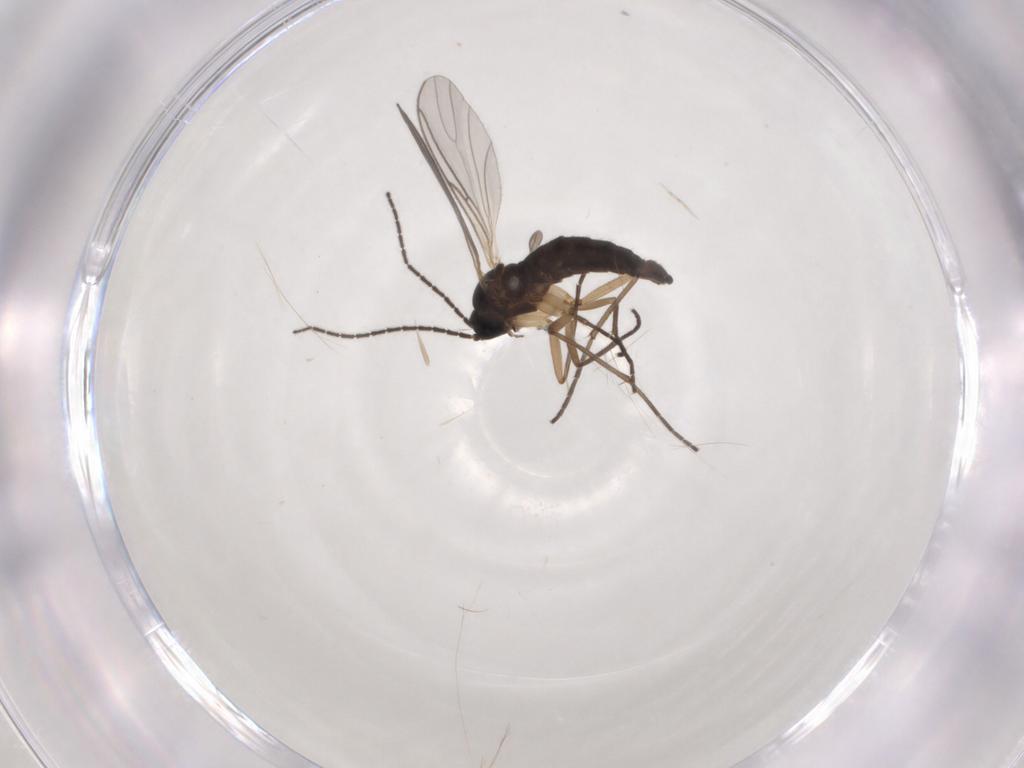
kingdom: Animalia
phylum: Arthropoda
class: Insecta
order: Diptera
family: Sciaridae
